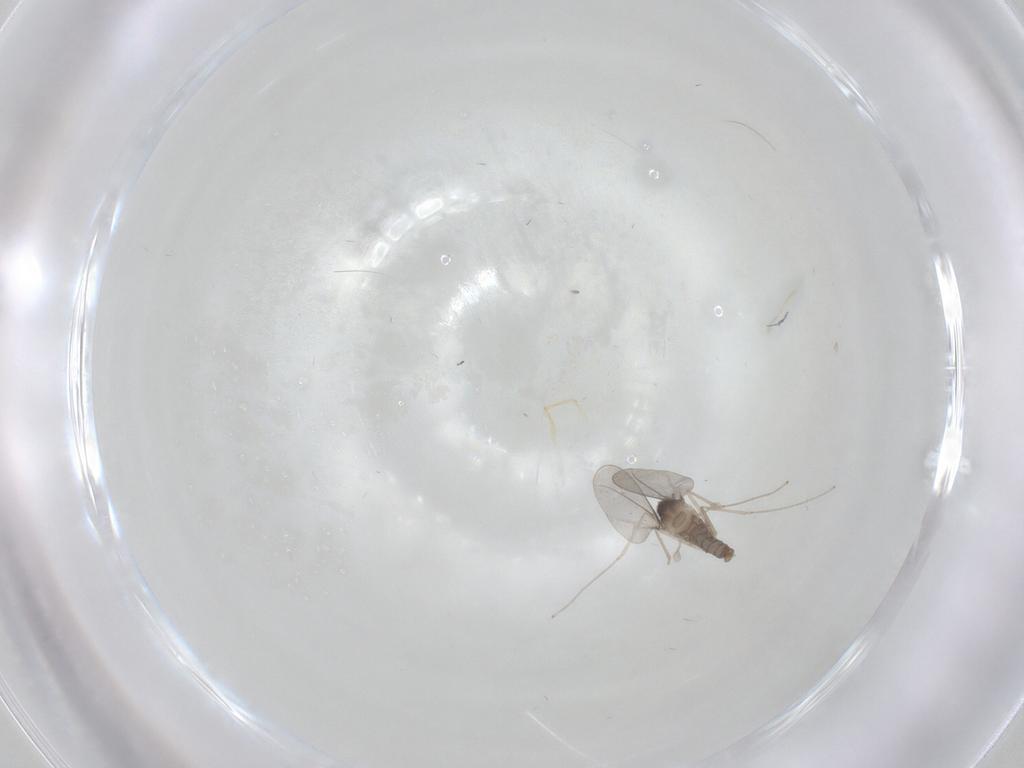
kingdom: Animalia
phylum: Arthropoda
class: Insecta
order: Diptera
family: Cecidomyiidae
